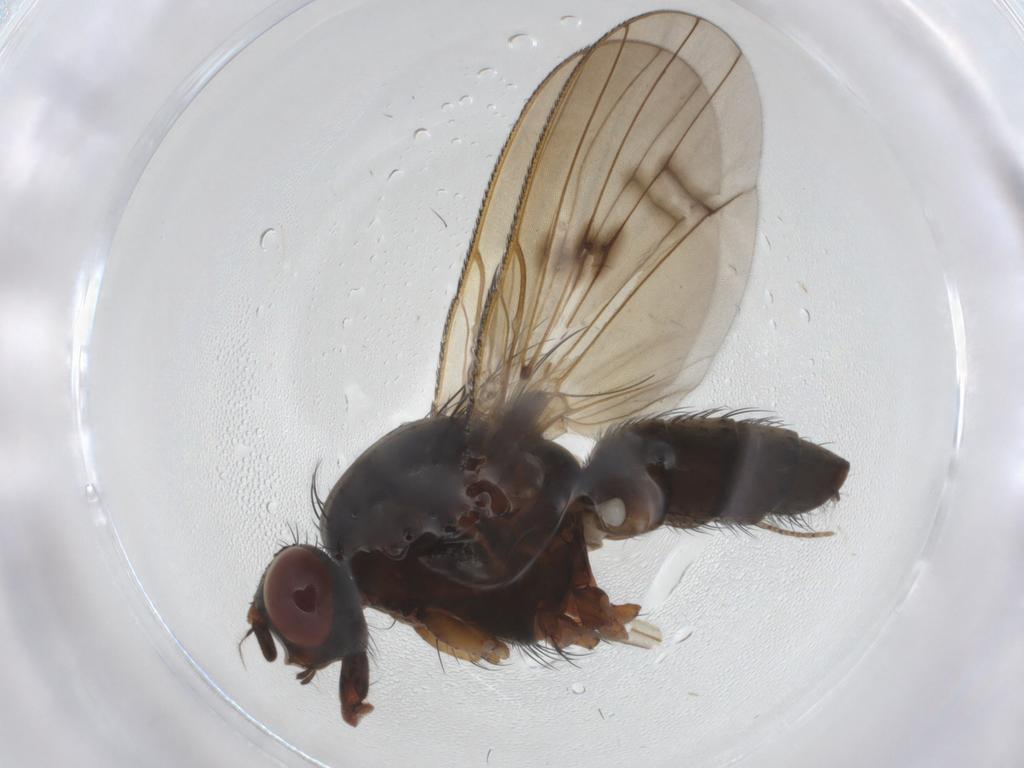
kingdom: Animalia
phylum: Arthropoda
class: Insecta
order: Diptera
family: Anthomyiidae
